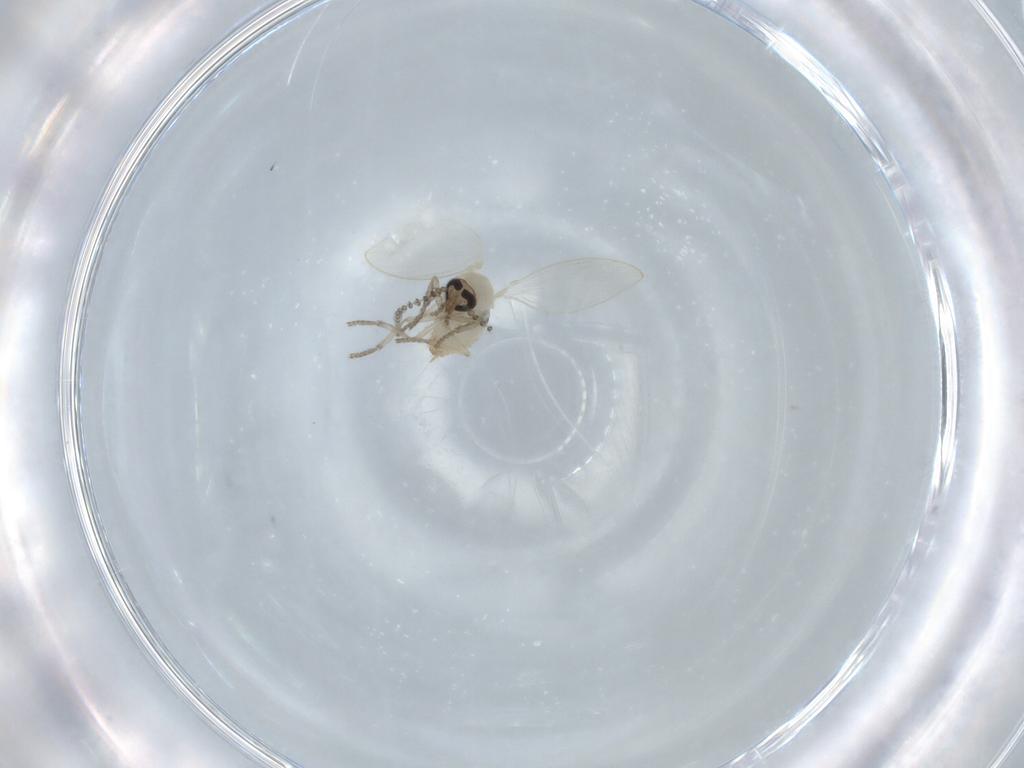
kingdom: Animalia
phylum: Arthropoda
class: Insecta
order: Diptera
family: Psychodidae
